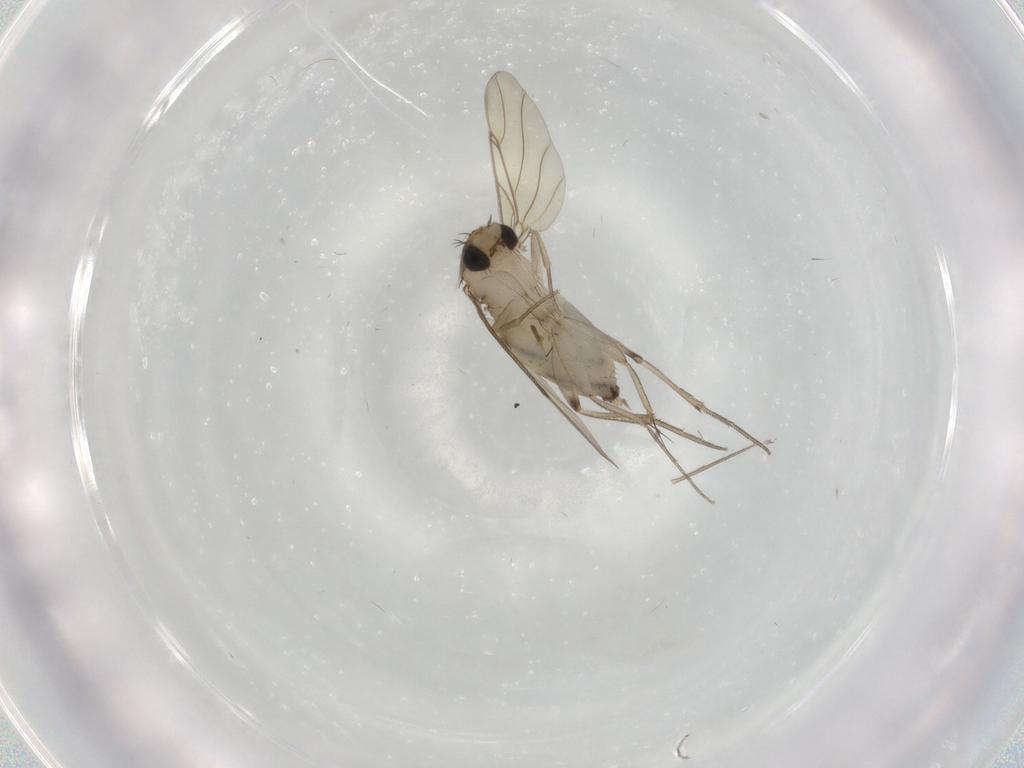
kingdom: Animalia
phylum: Arthropoda
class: Insecta
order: Diptera
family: Phoridae
